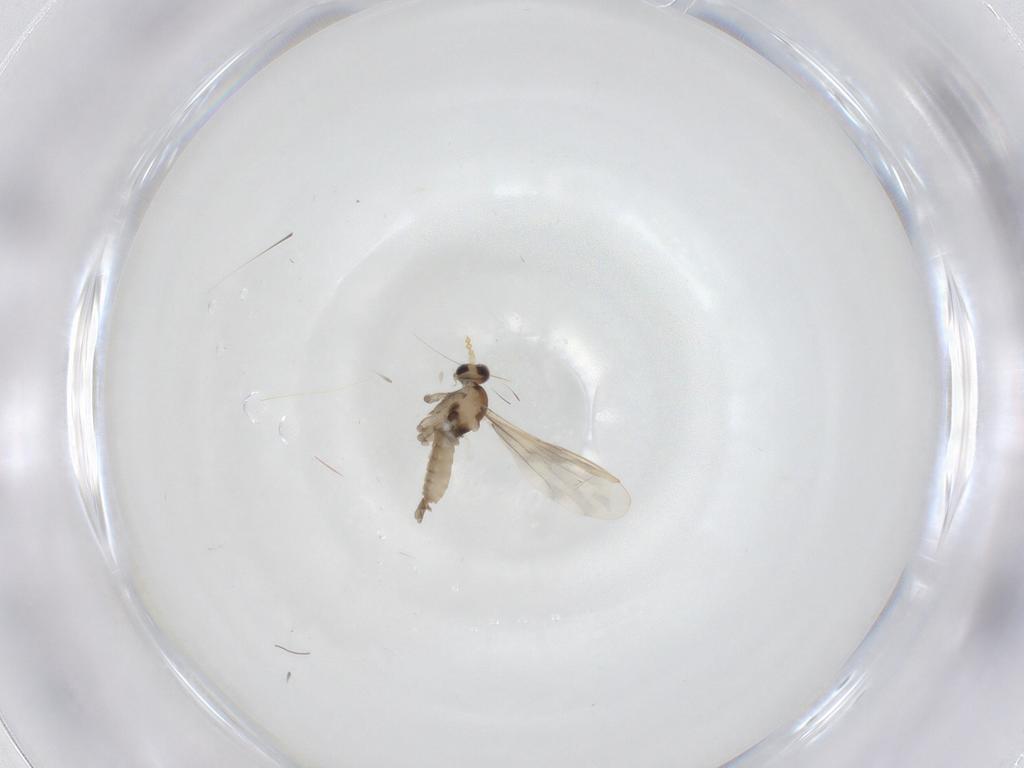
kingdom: Animalia
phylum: Arthropoda
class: Insecta
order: Diptera
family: Cecidomyiidae
